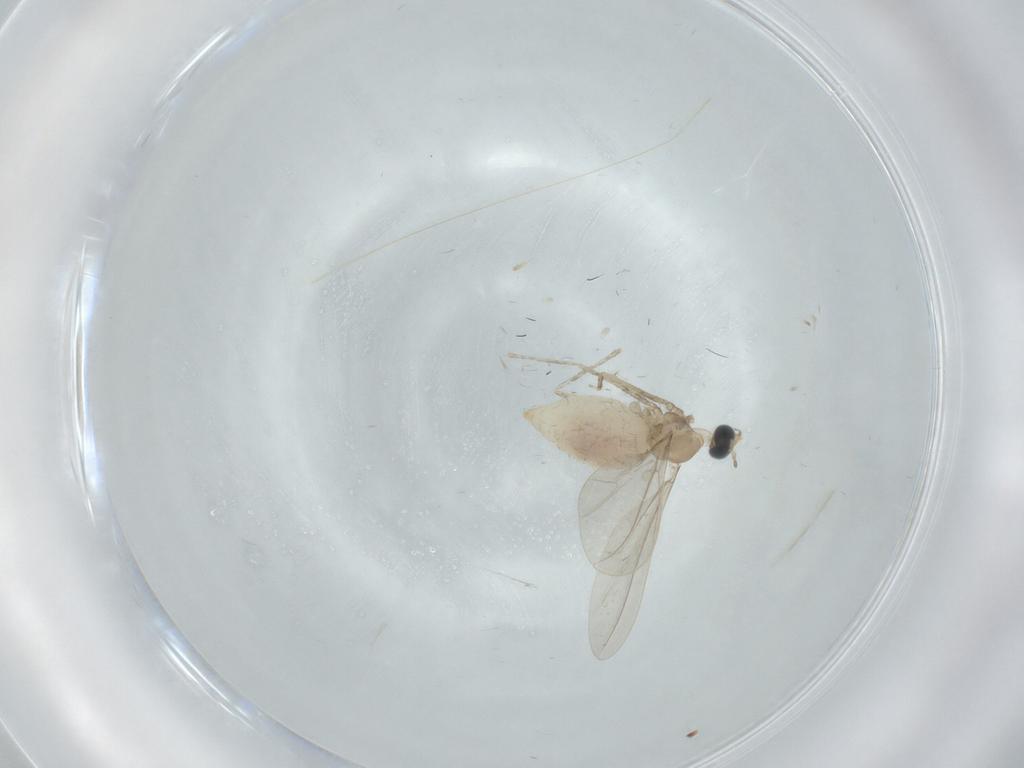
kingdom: Animalia
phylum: Arthropoda
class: Insecta
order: Diptera
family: Cecidomyiidae
